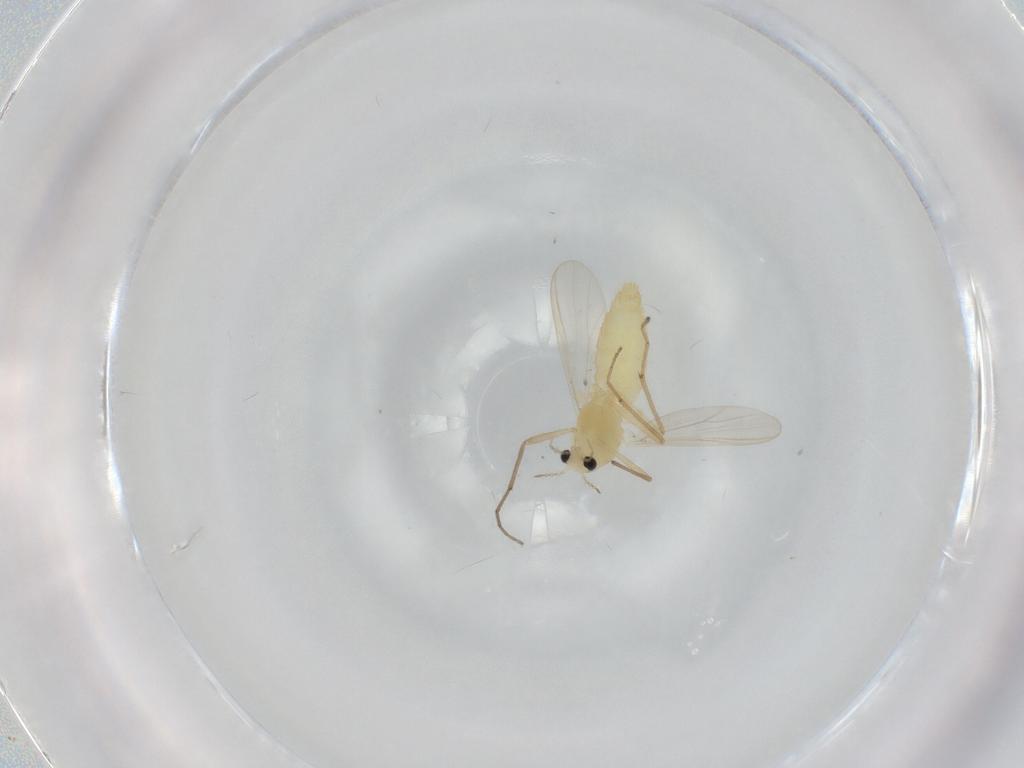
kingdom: Animalia
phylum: Arthropoda
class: Insecta
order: Diptera
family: Chironomidae
